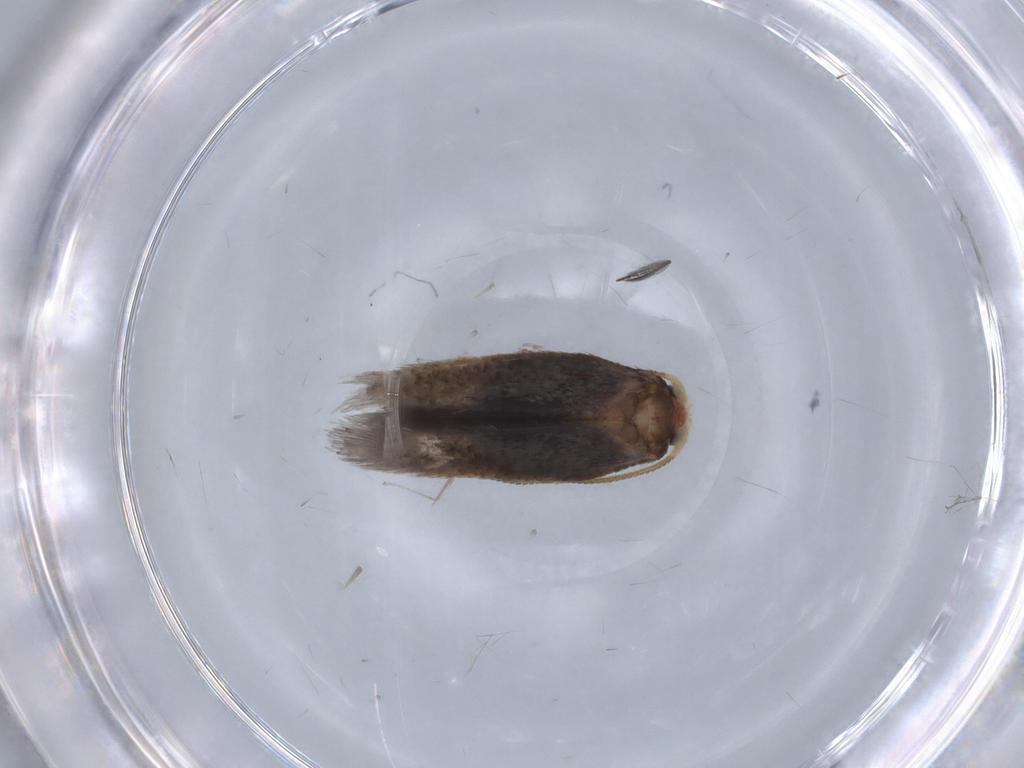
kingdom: Animalia
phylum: Arthropoda
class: Insecta
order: Lepidoptera
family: Nepticulidae
